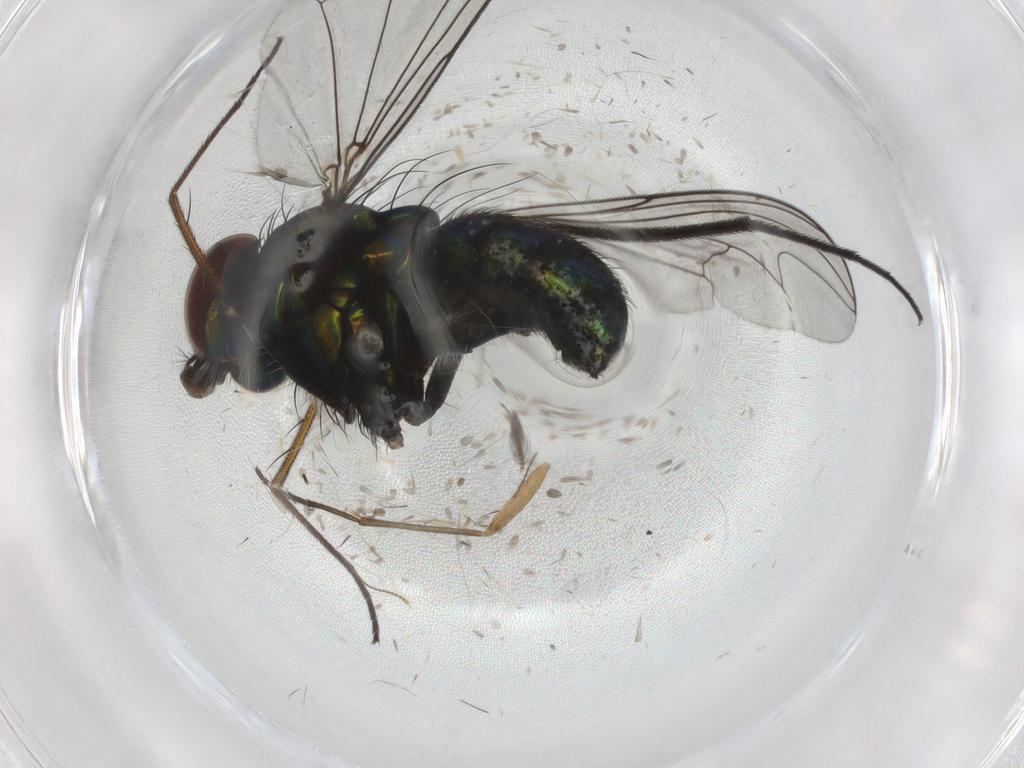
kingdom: Animalia
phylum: Arthropoda
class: Insecta
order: Diptera
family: Dolichopodidae
